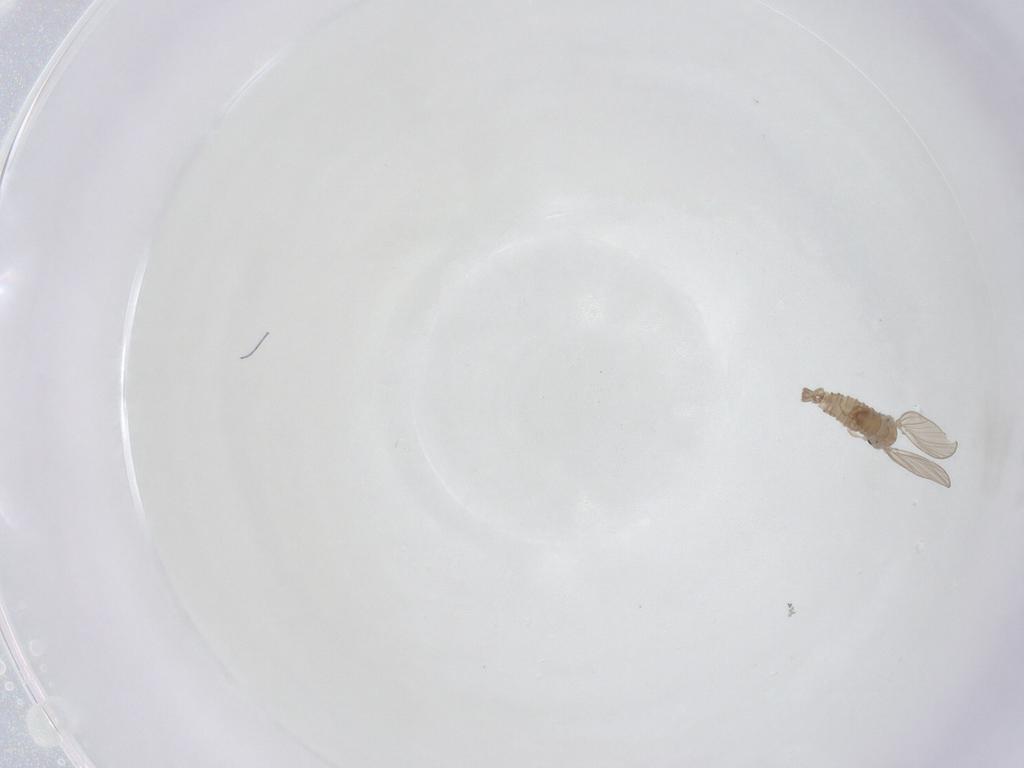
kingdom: Animalia
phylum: Arthropoda
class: Insecta
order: Diptera
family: Psychodidae
